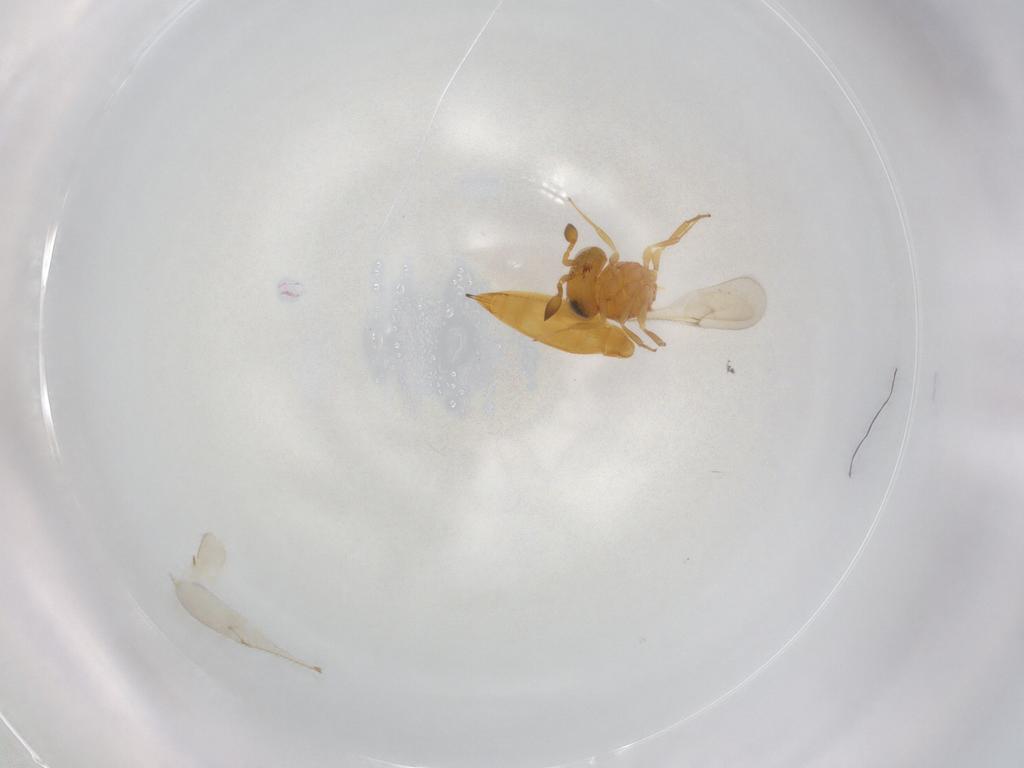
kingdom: Animalia
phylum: Arthropoda
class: Insecta
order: Hymenoptera
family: Scelionidae
